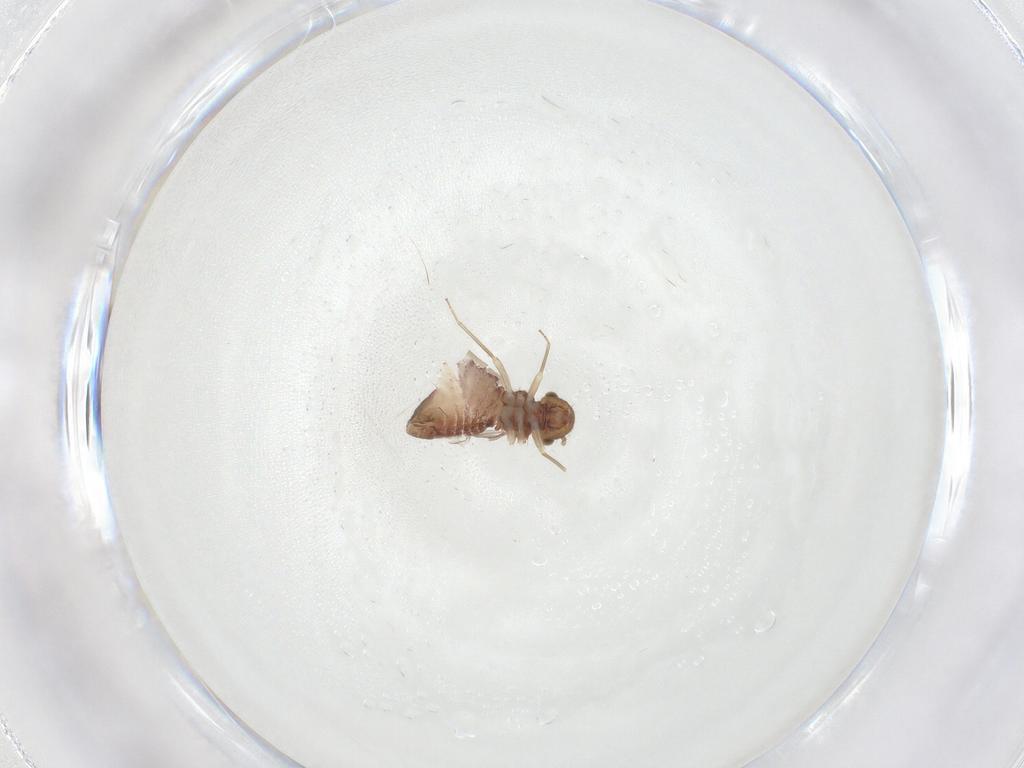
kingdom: Animalia
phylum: Arthropoda
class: Insecta
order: Psocodea
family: Ectopsocidae
